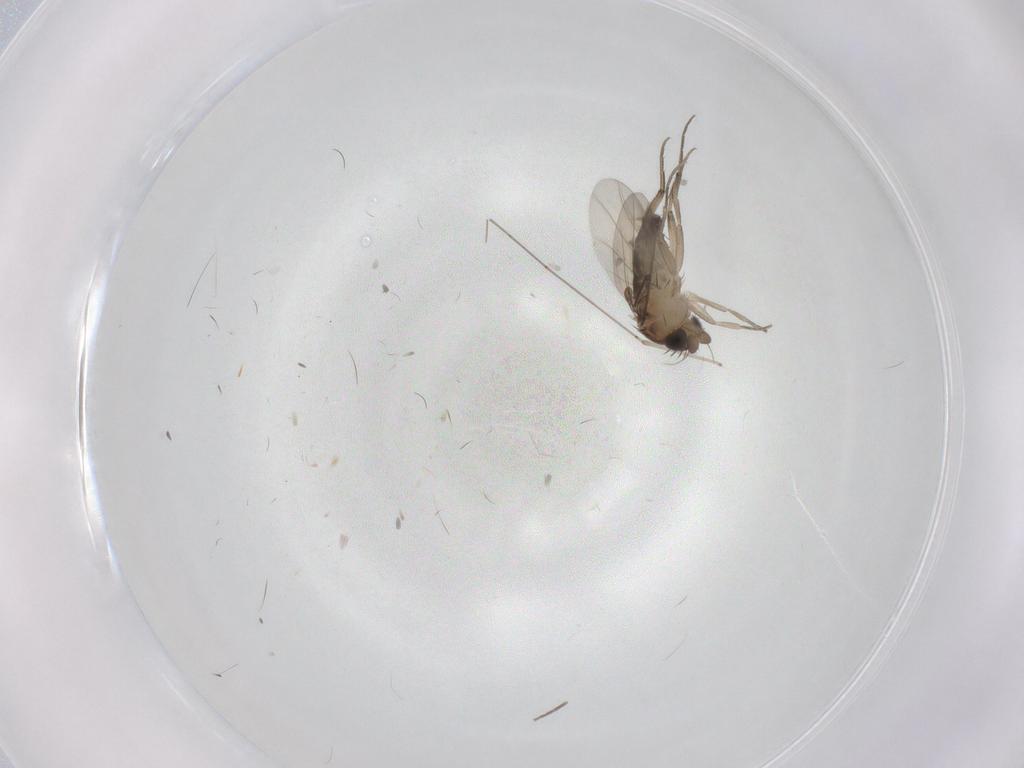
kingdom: Animalia
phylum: Arthropoda
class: Insecta
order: Diptera
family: Phoridae
